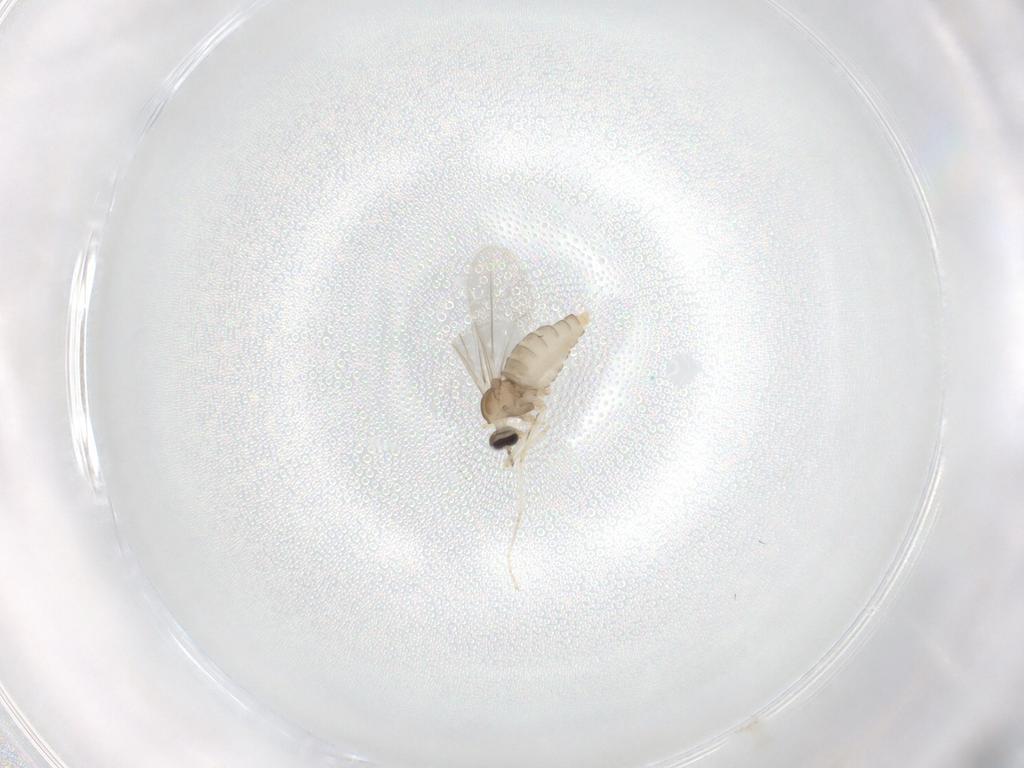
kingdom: Animalia
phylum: Arthropoda
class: Insecta
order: Diptera
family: Cecidomyiidae
